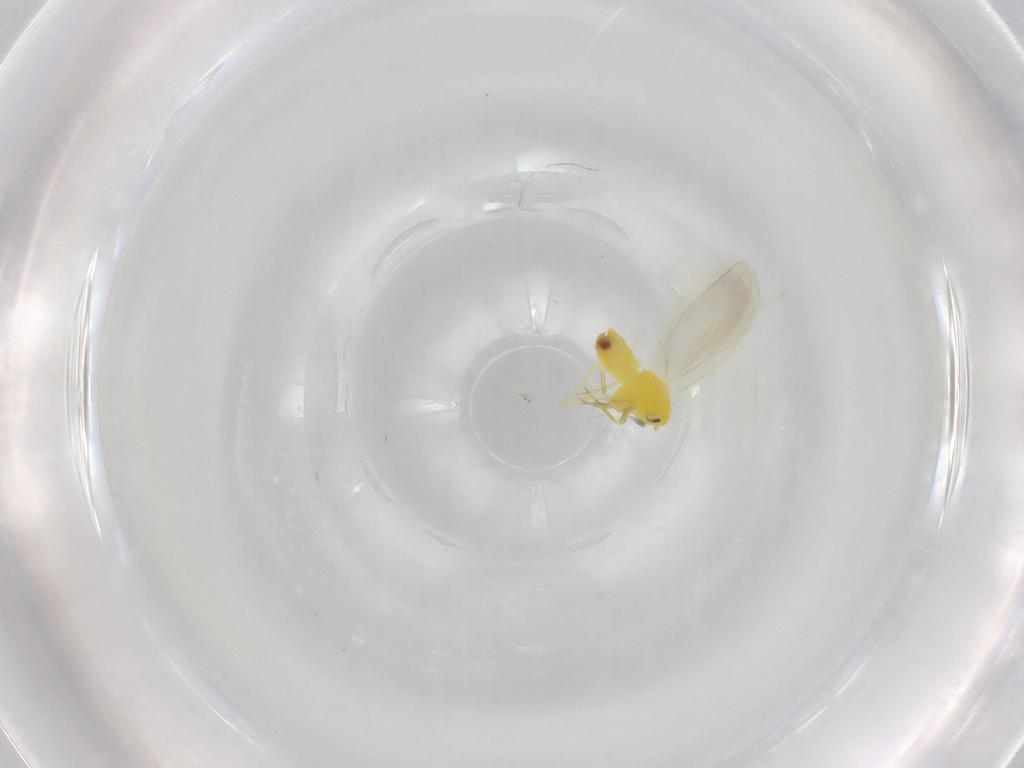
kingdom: Animalia
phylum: Arthropoda
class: Insecta
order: Hemiptera
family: Aleyrodidae
